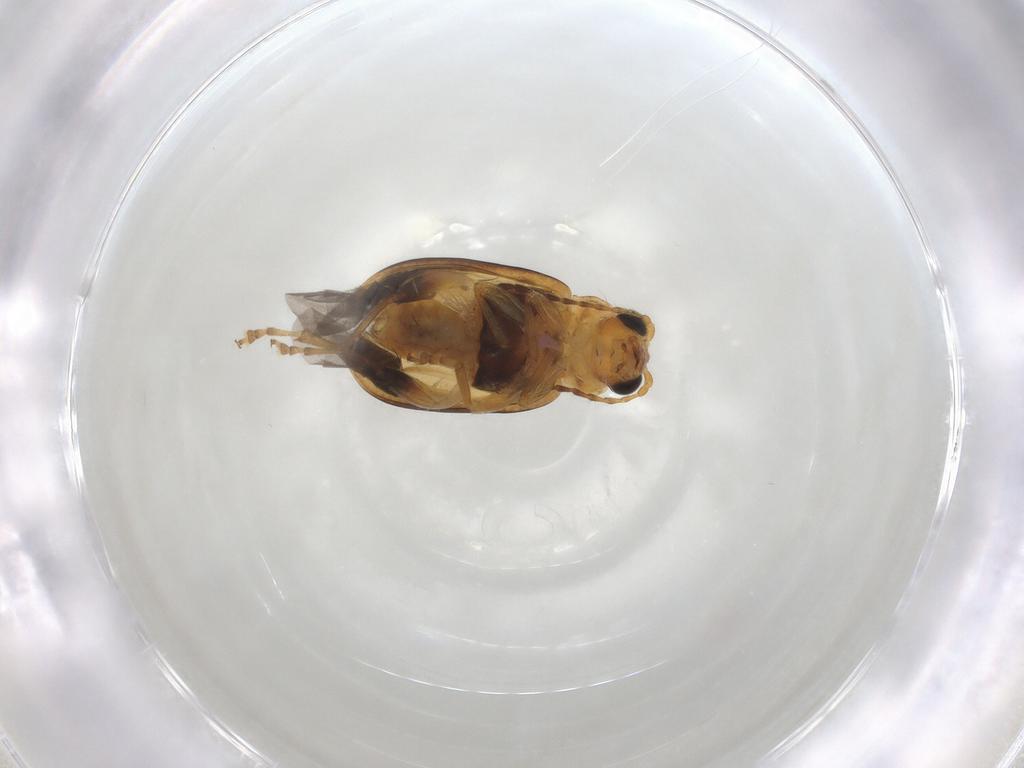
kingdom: Animalia
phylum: Arthropoda
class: Insecta
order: Coleoptera
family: Chrysomelidae
